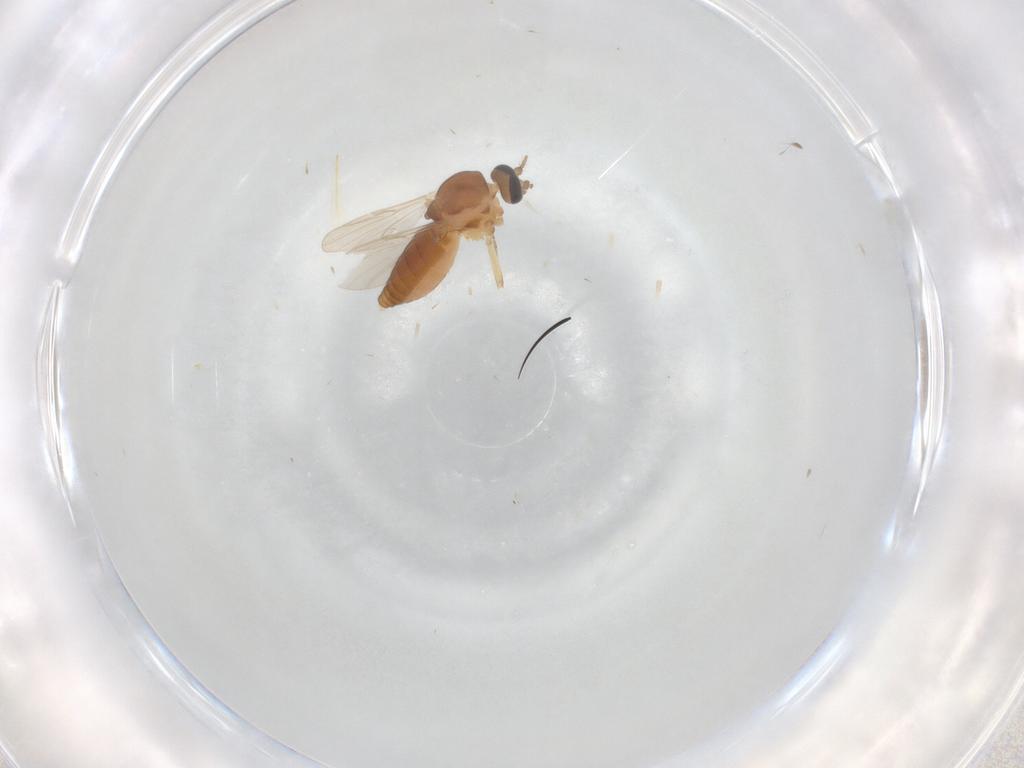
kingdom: Animalia
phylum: Arthropoda
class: Insecta
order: Diptera
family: Ceratopogonidae
